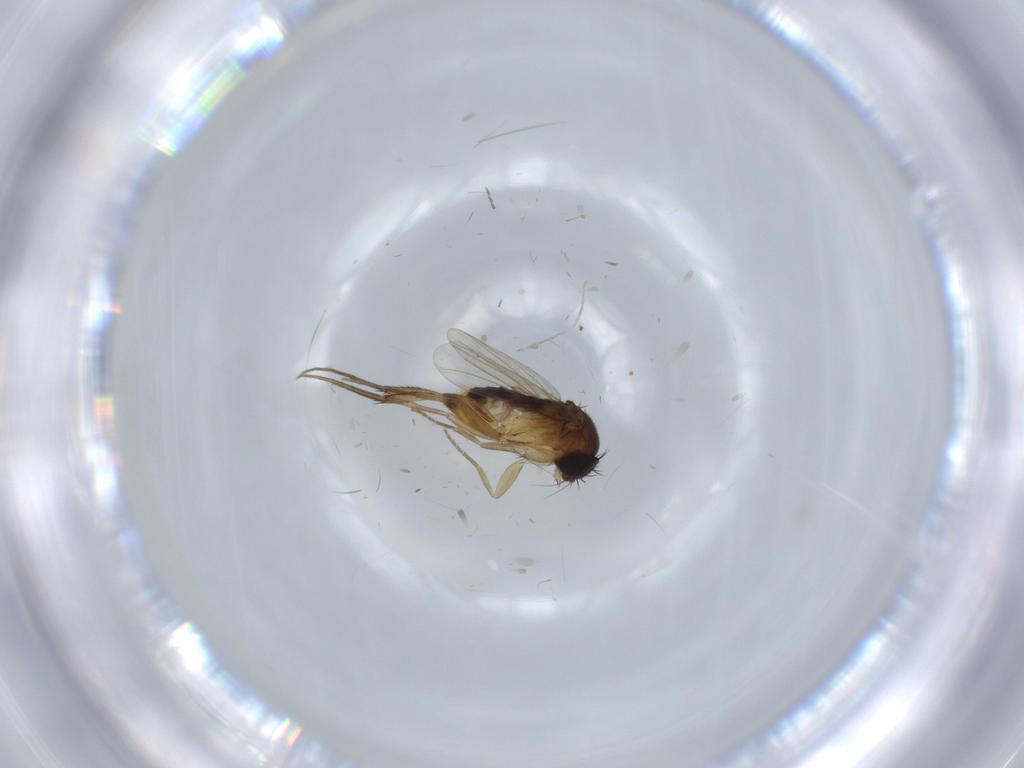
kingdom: Animalia
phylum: Arthropoda
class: Insecta
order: Diptera
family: Phoridae
